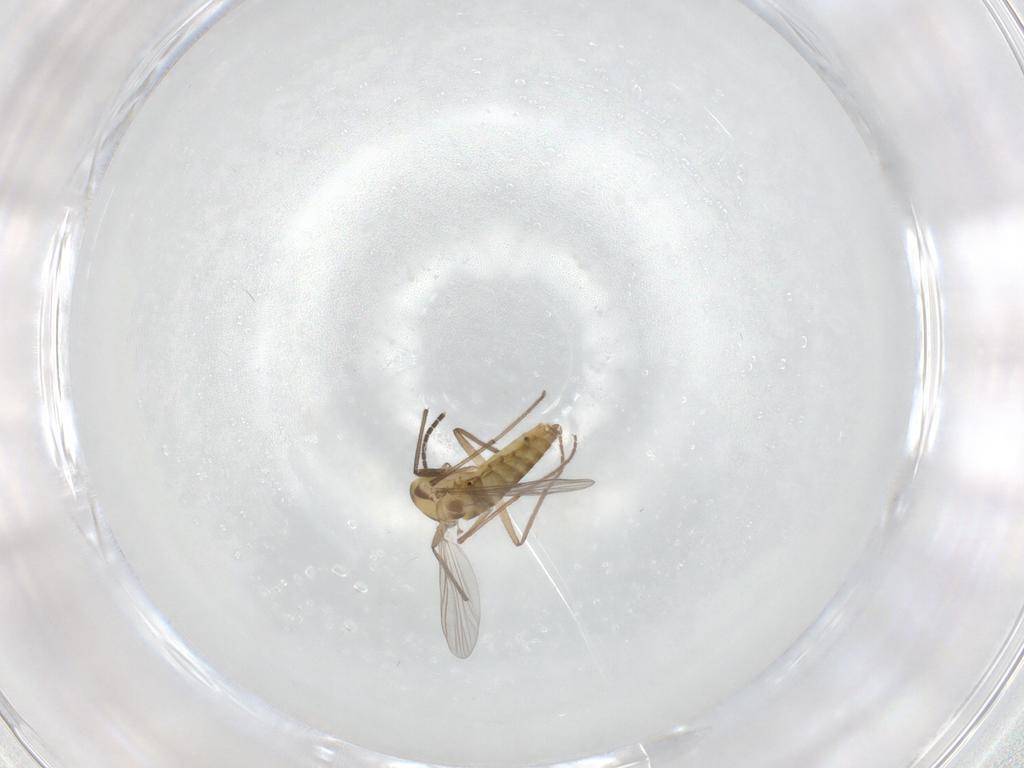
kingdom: Animalia
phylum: Arthropoda
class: Insecta
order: Diptera
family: Chironomidae
